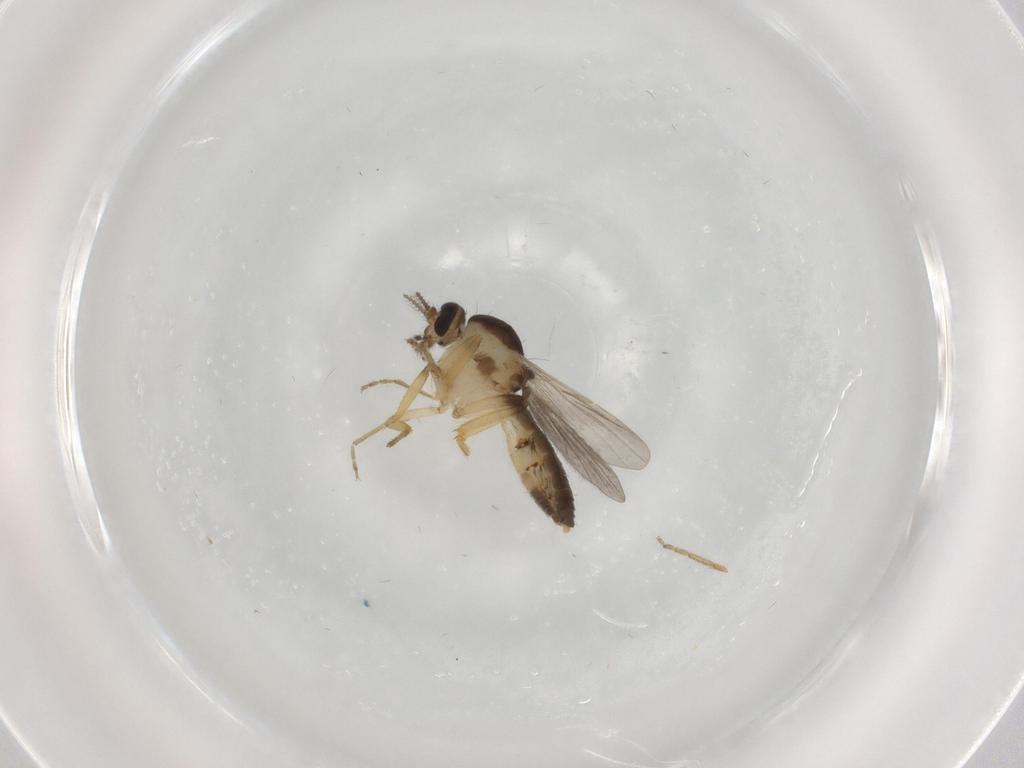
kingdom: Animalia
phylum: Arthropoda
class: Insecta
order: Diptera
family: Ceratopogonidae
